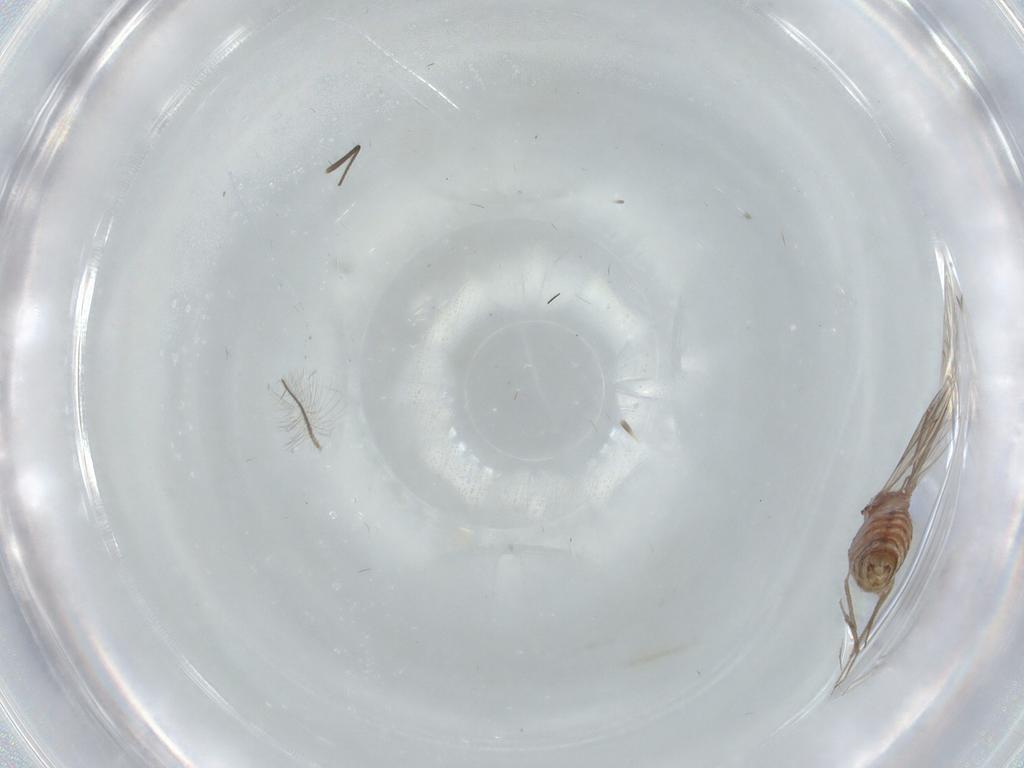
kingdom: Animalia
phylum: Arthropoda
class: Insecta
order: Psocodea
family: Lachesillidae
